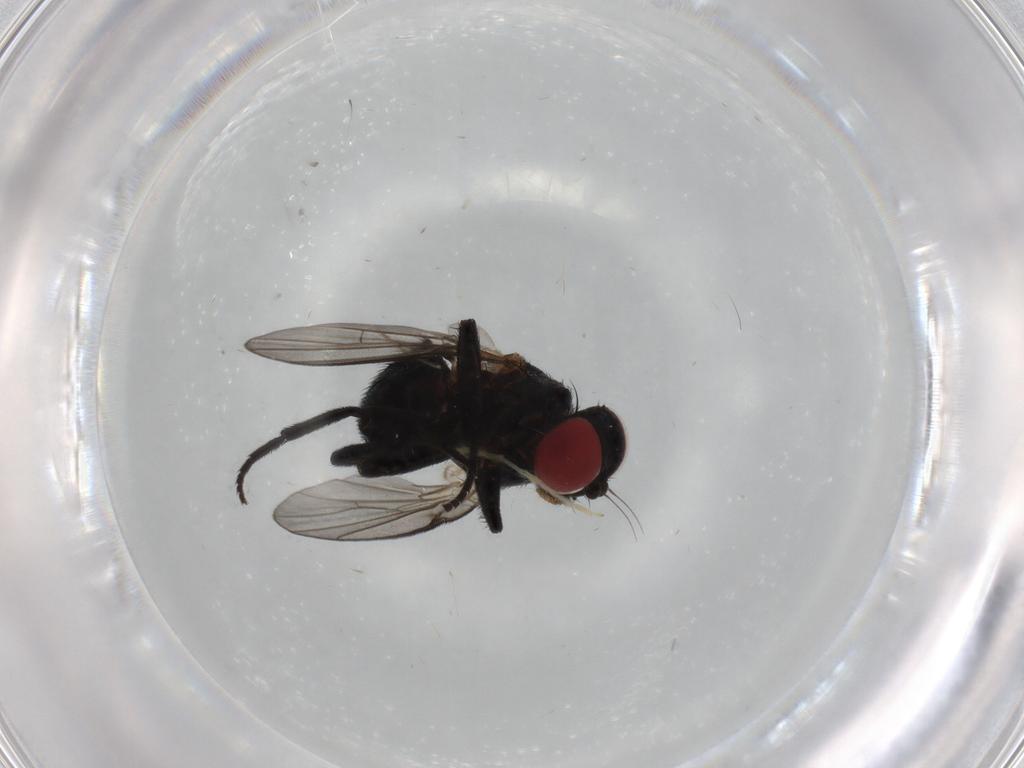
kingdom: Animalia
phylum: Arthropoda
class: Insecta
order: Diptera
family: Agromyzidae
